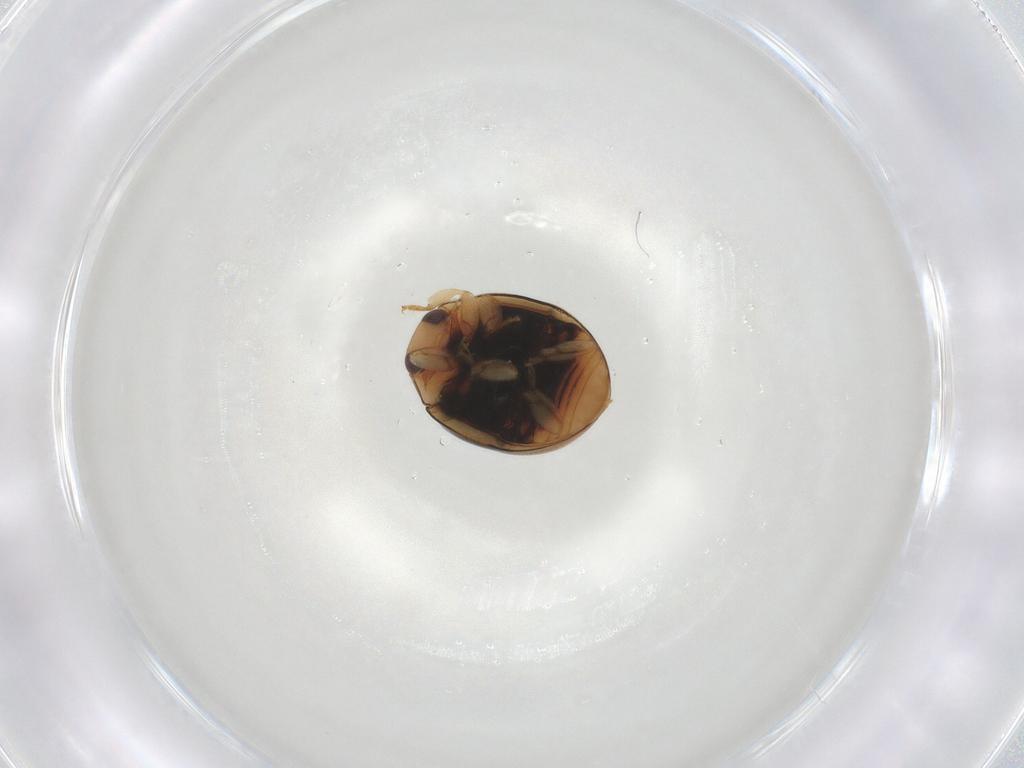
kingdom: Animalia
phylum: Arthropoda
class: Insecta
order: Coleoptera
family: Coccinellidae
